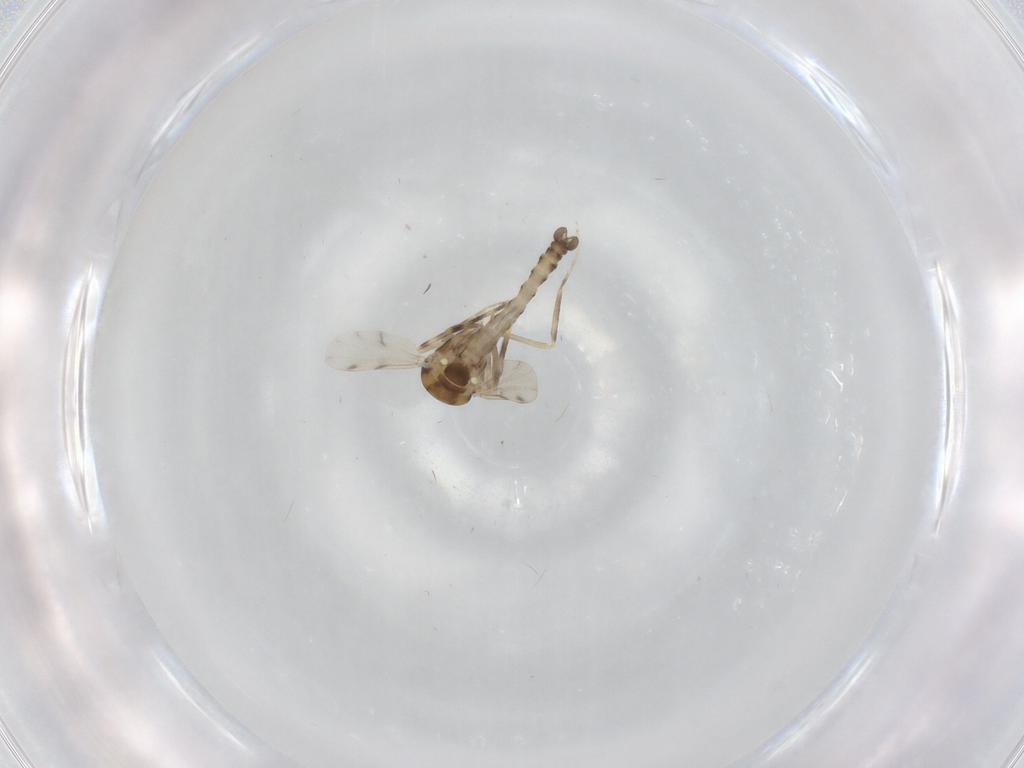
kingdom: Animalia
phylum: Arthropoda
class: Insecta
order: Diptera
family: Ceratopogonidae
